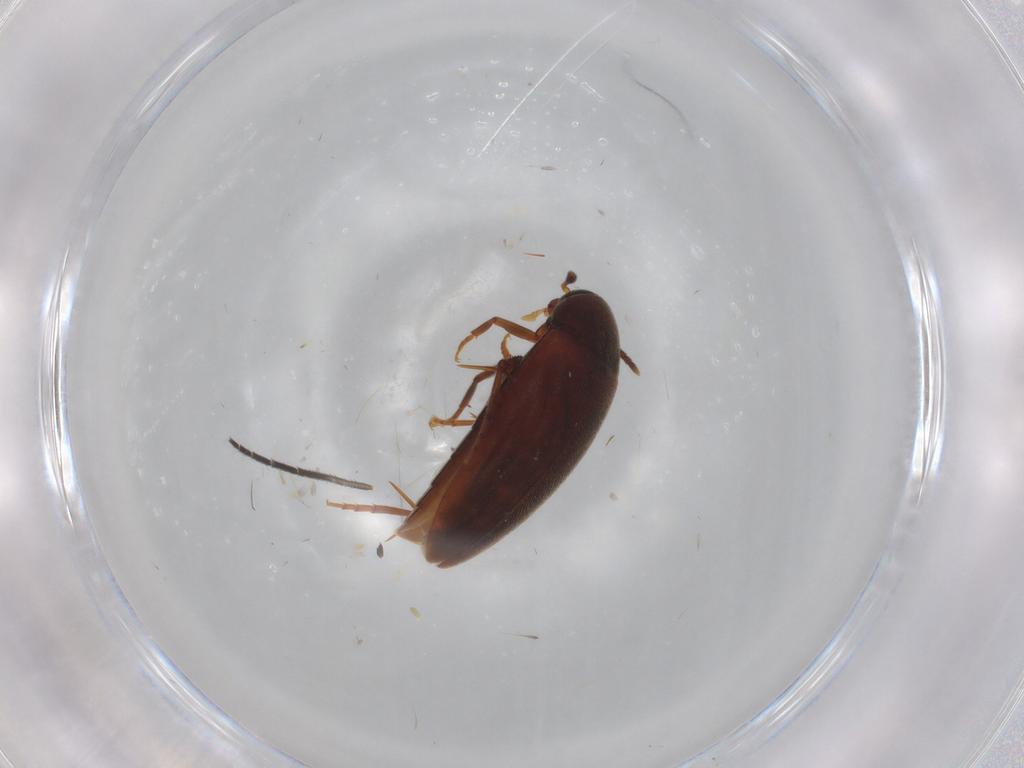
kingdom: Animalia
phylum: Arthropoda
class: Insecta
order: Coleoptera
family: Melandryidae
